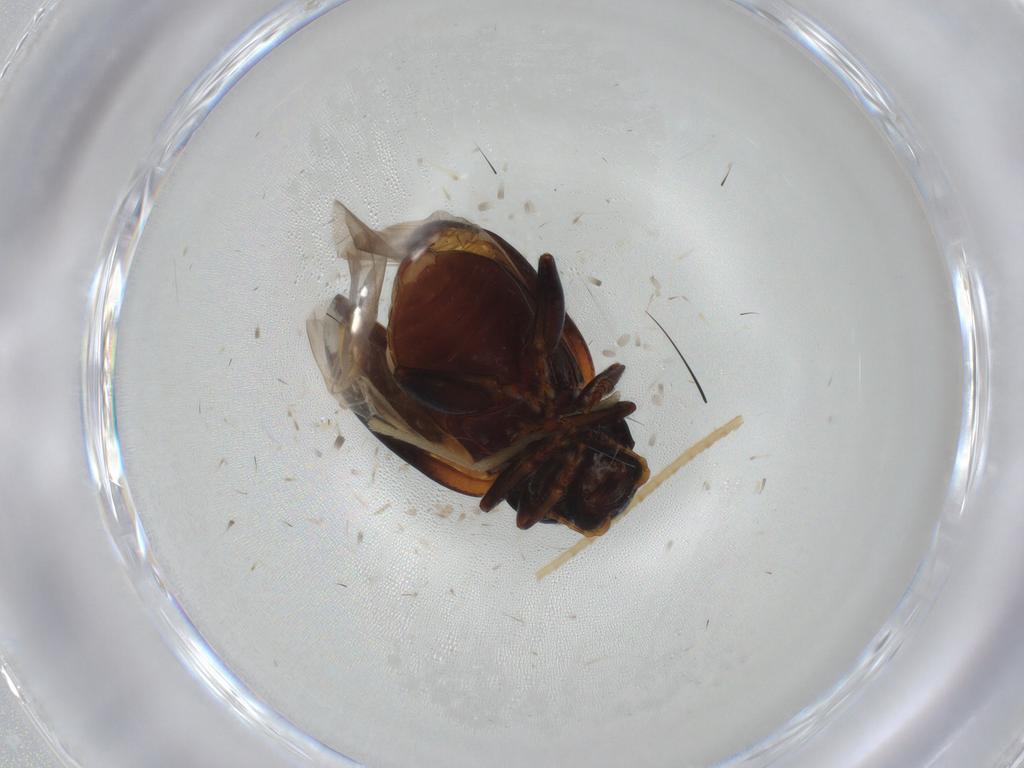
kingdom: Animalia
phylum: Arthropoda
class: Insecta
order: Coleoptera
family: Chrysomelidae
